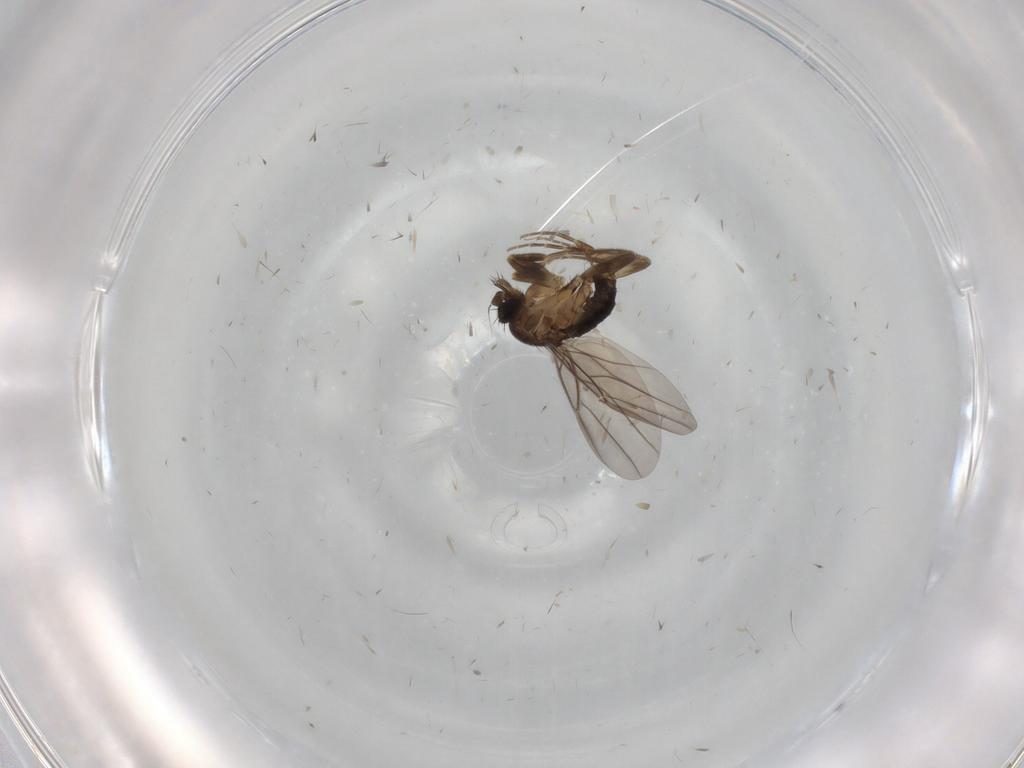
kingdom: Animalia
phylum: Arthropoda
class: Insecta
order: Diptera
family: Chironomidae
